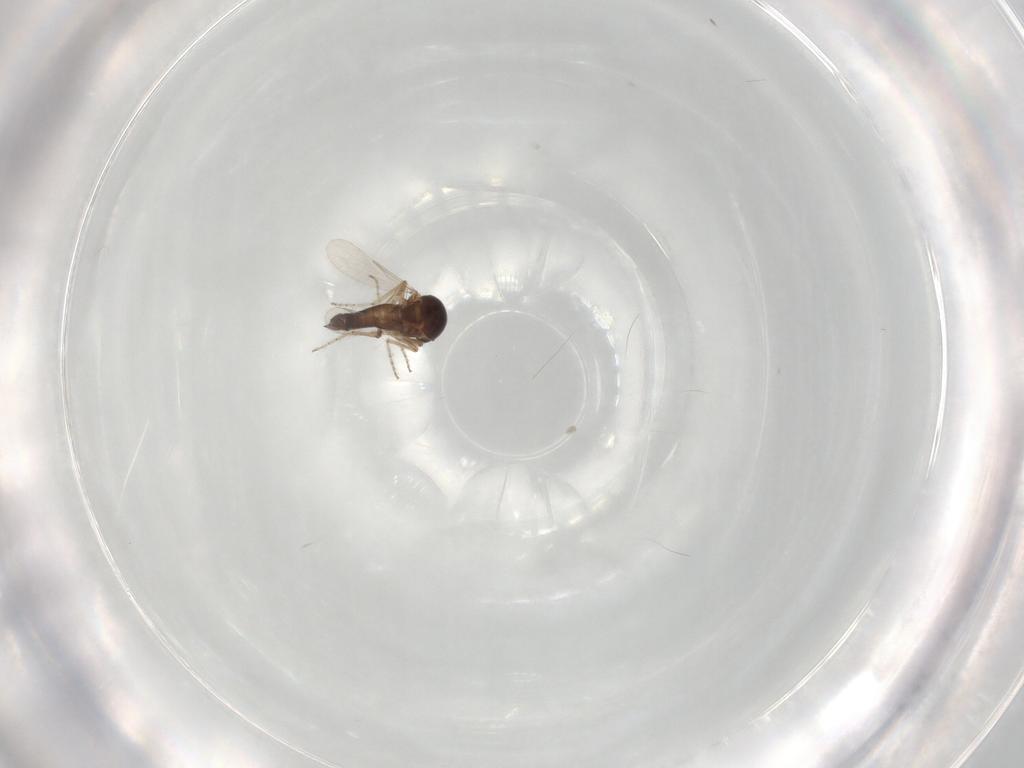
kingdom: Animalia
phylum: Arthropoda
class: Insecta
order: Diptera
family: Ceratopogonidae
